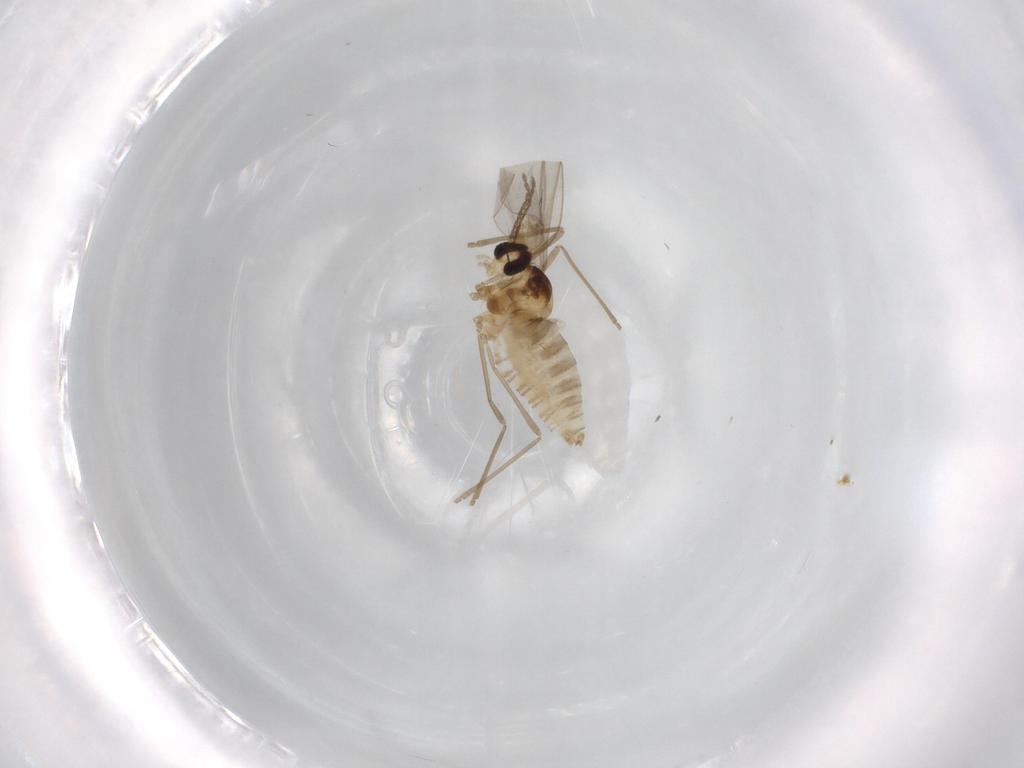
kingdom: Animalia
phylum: Arthropoda
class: Insecta
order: Diptera
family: Cecidomyiidae
